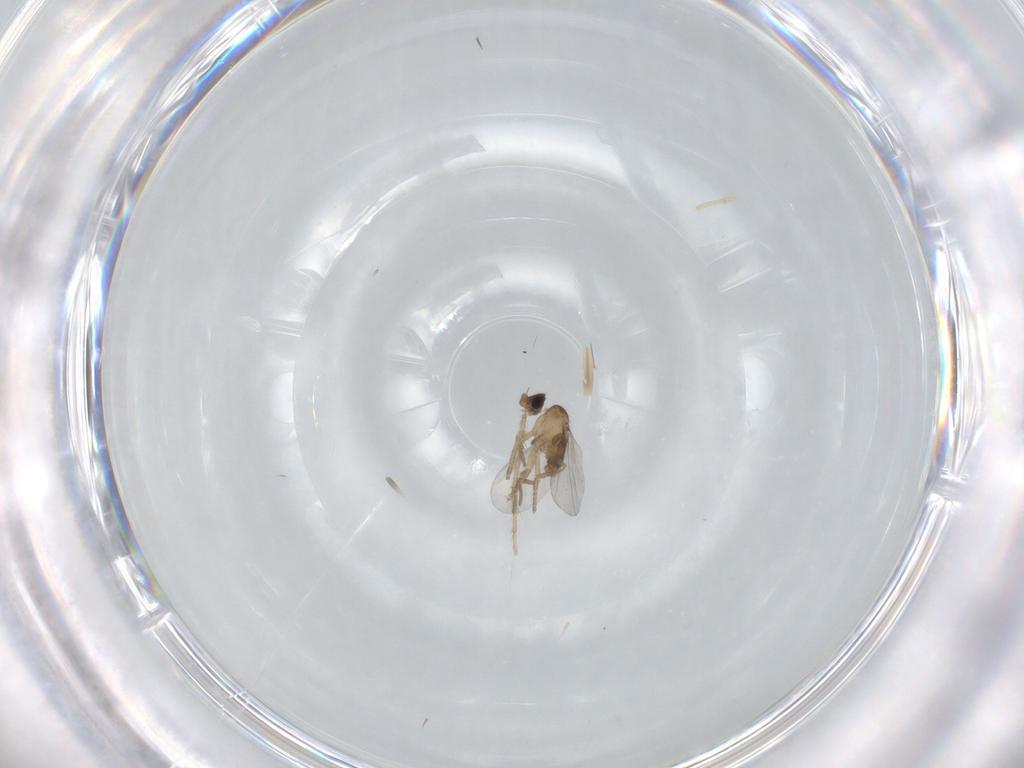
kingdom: Animalia
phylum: Arthropoda
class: Insecta
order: Diptera
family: Phoridae
